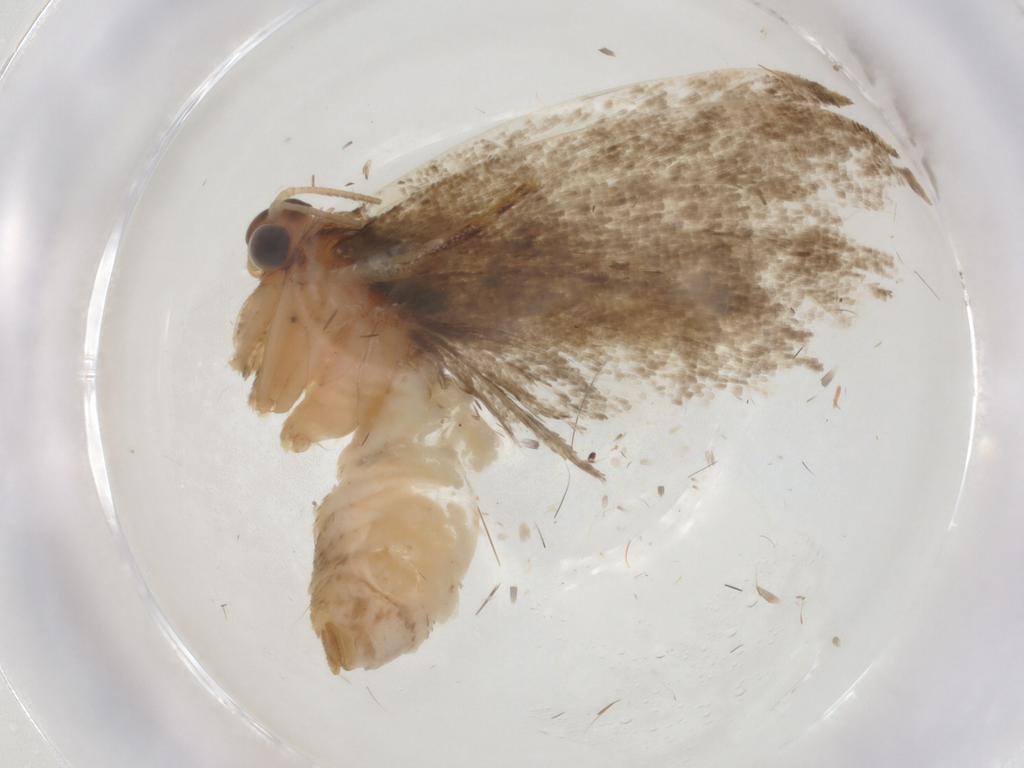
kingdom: Animalia
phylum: Arthropoda
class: Insecta
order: Lepidoptera
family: Tortricidae
